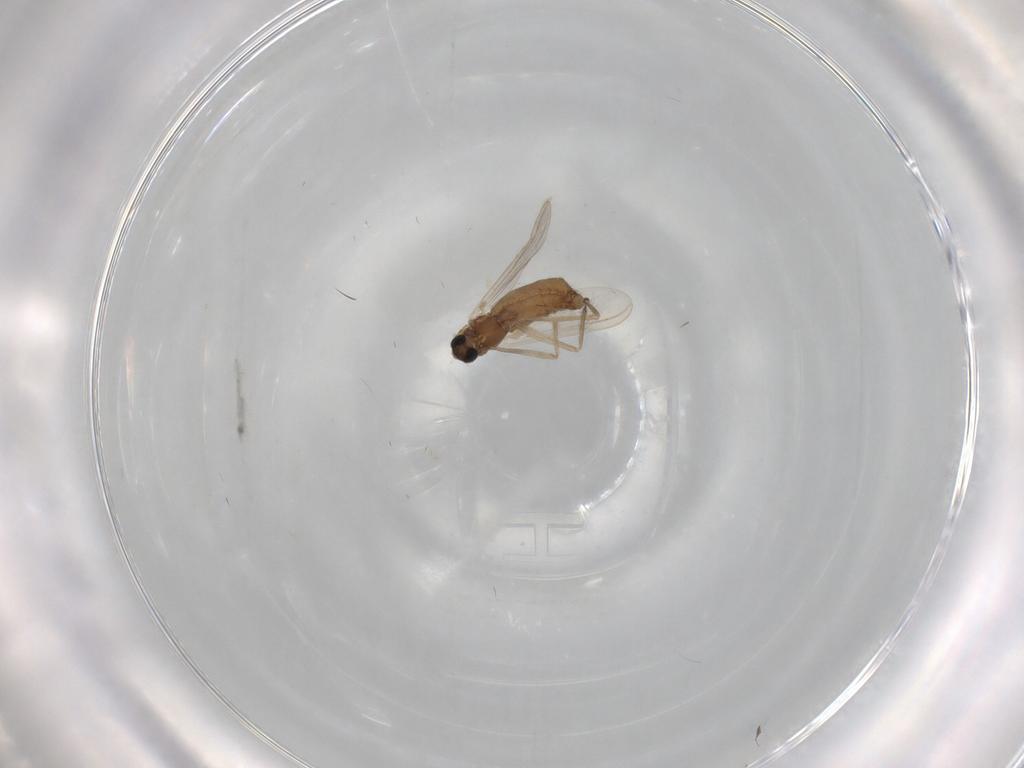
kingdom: Animalia
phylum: Arthropoda
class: Insecta
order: Diptera
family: Chironomidae
